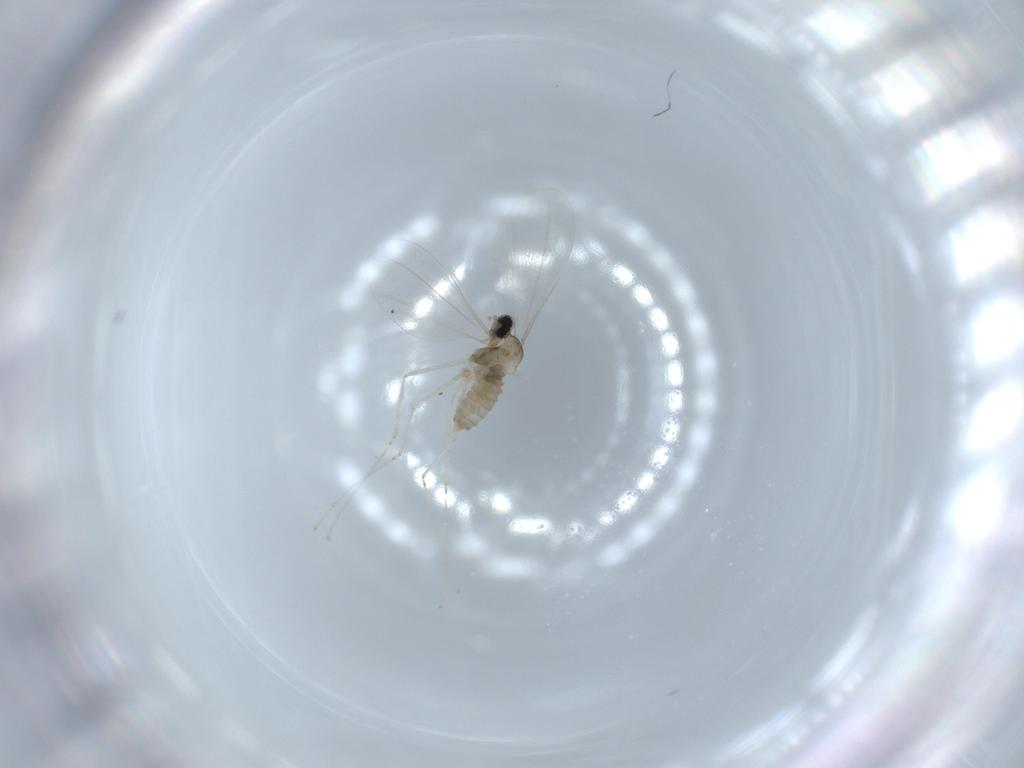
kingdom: Animalia
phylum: Arthropoda
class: Insecta
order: Diptera
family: Cecidomyiidae
